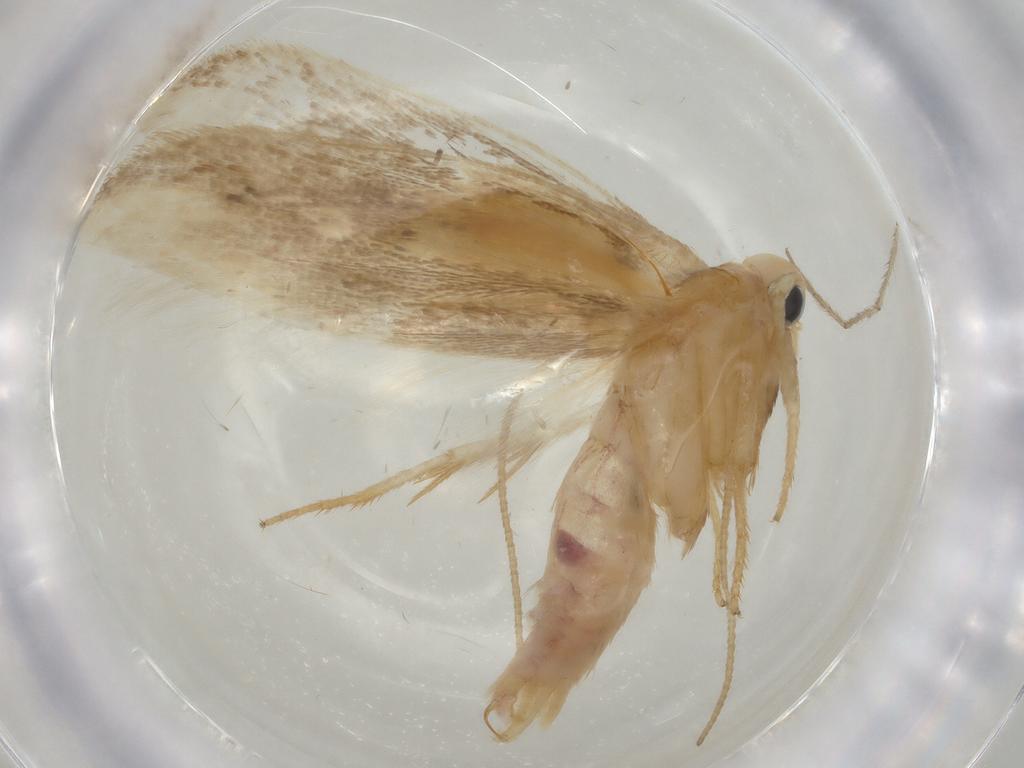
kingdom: Animalia
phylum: Arthropoda
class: Insecta
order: Lepidoptera
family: Geometridae
